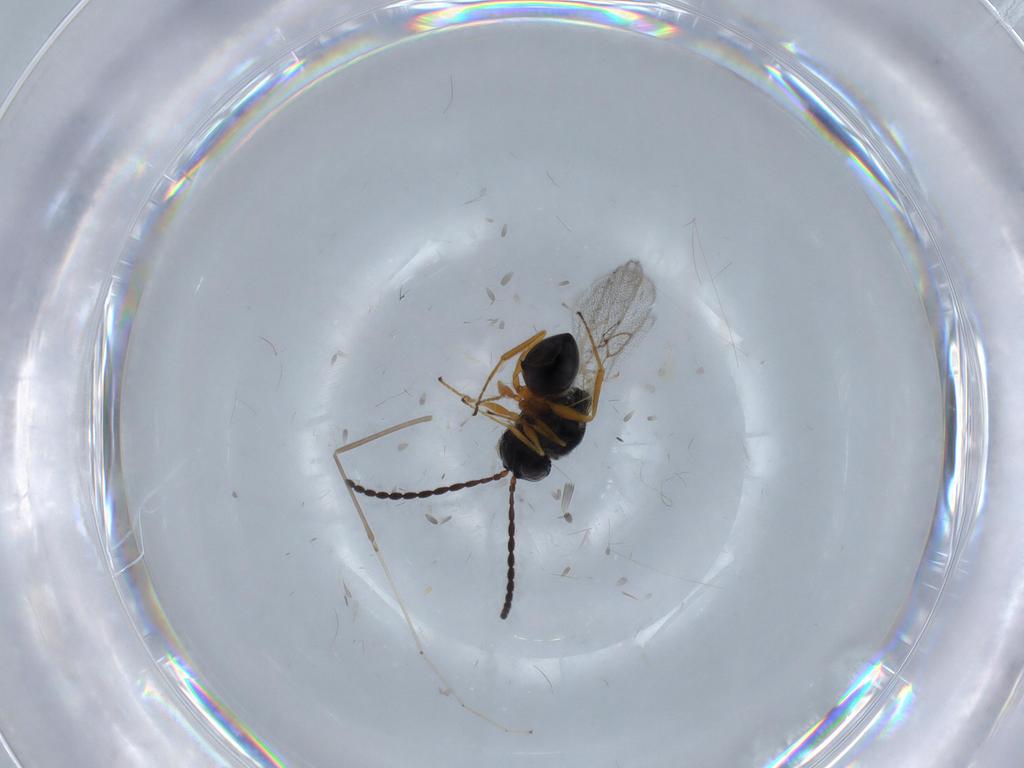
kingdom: Animalia
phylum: Arthropoda
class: Insecta
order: Hymenoptera
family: Figitidae
